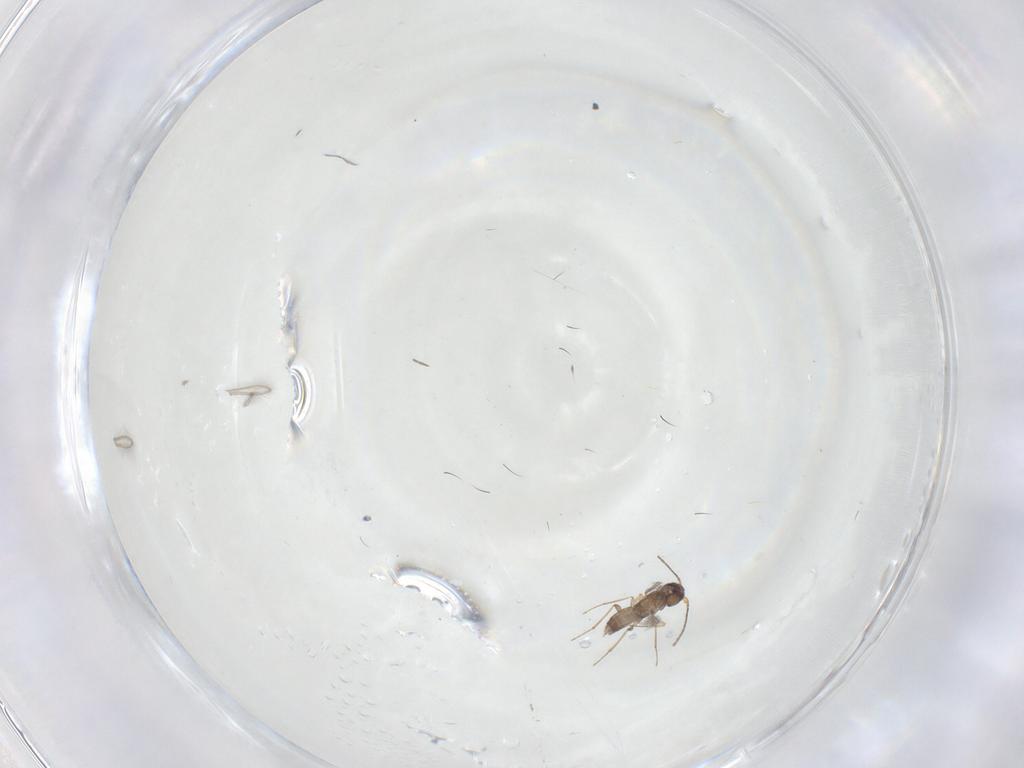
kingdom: Animalia
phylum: Arthropoda
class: Insecta
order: Hymenoptera
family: Mymaridae
